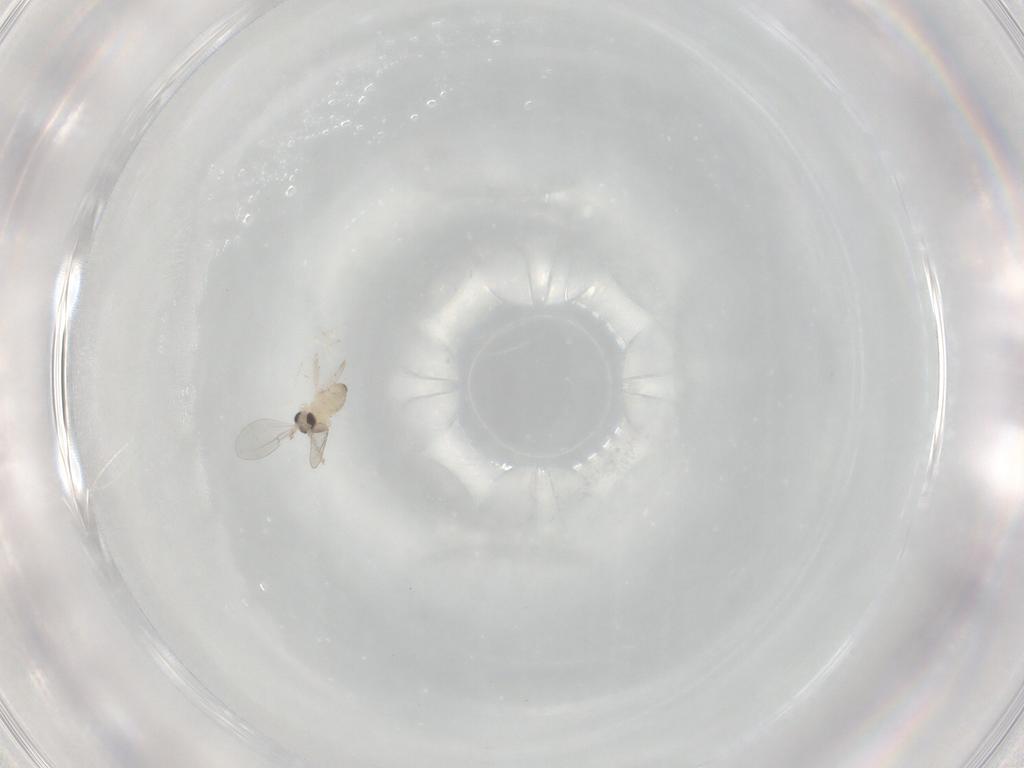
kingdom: Animalia
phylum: Arthropoda
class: Insecta
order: Diptera
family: Cecidomyiidae
